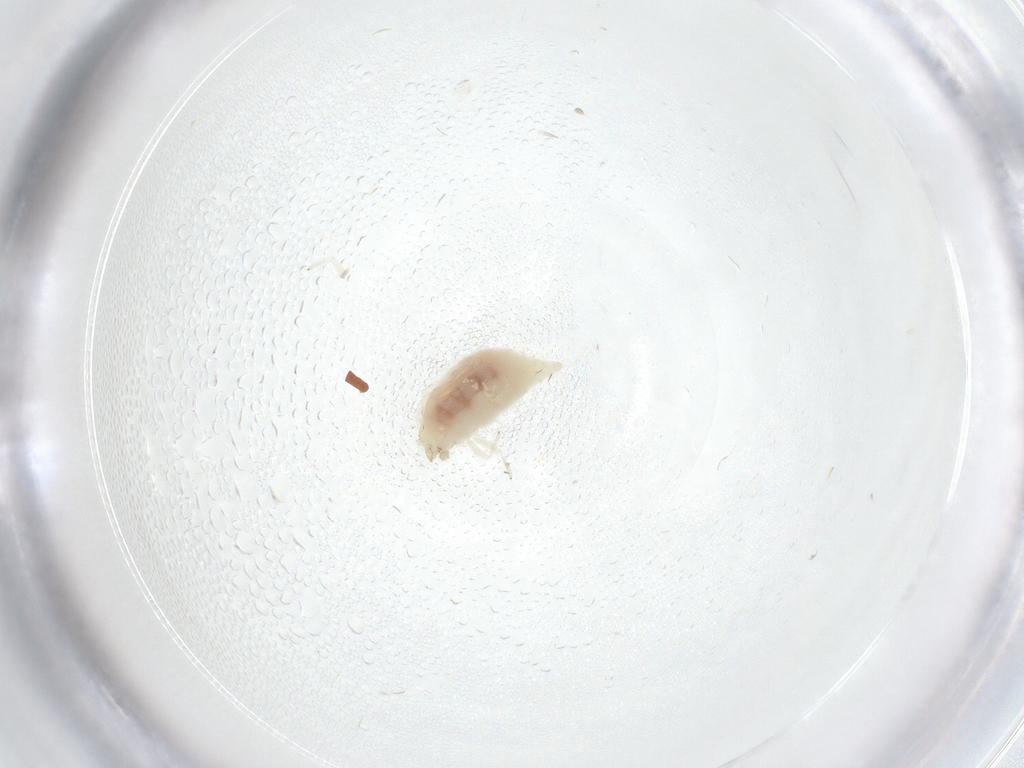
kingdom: Animalia
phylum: Arthropoda
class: Insecta
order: Neuroptera
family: Coniopterygidae
